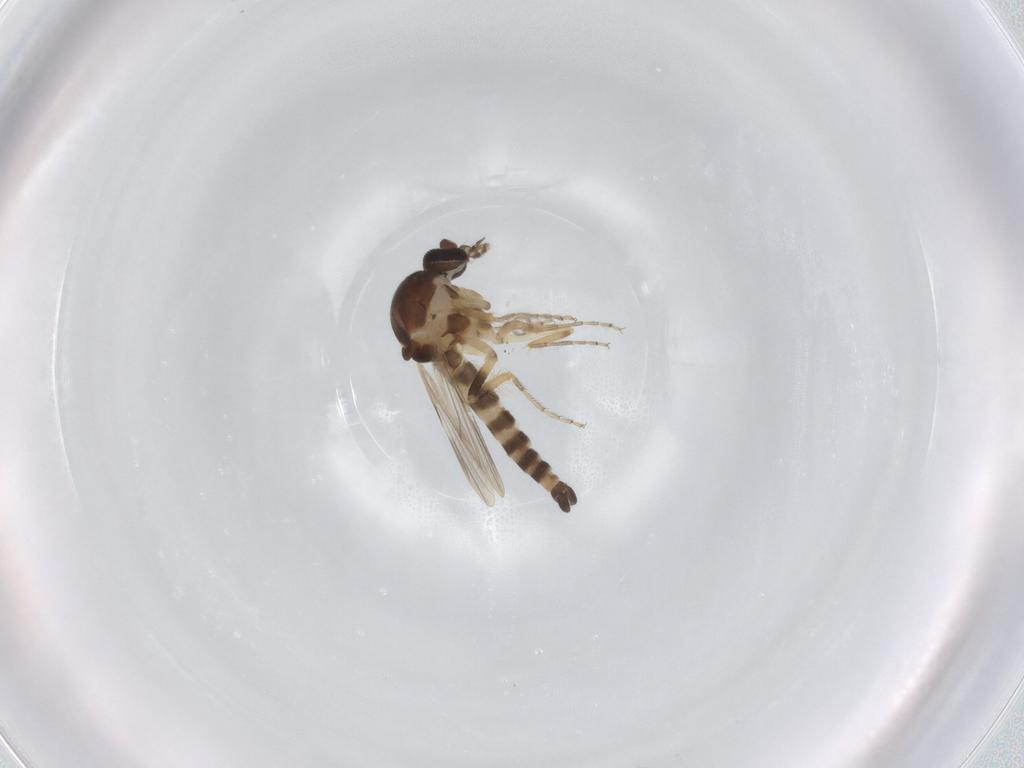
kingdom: Animalia
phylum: Arthropoda
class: Insecta
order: Diptera
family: Ceratopogonidae
